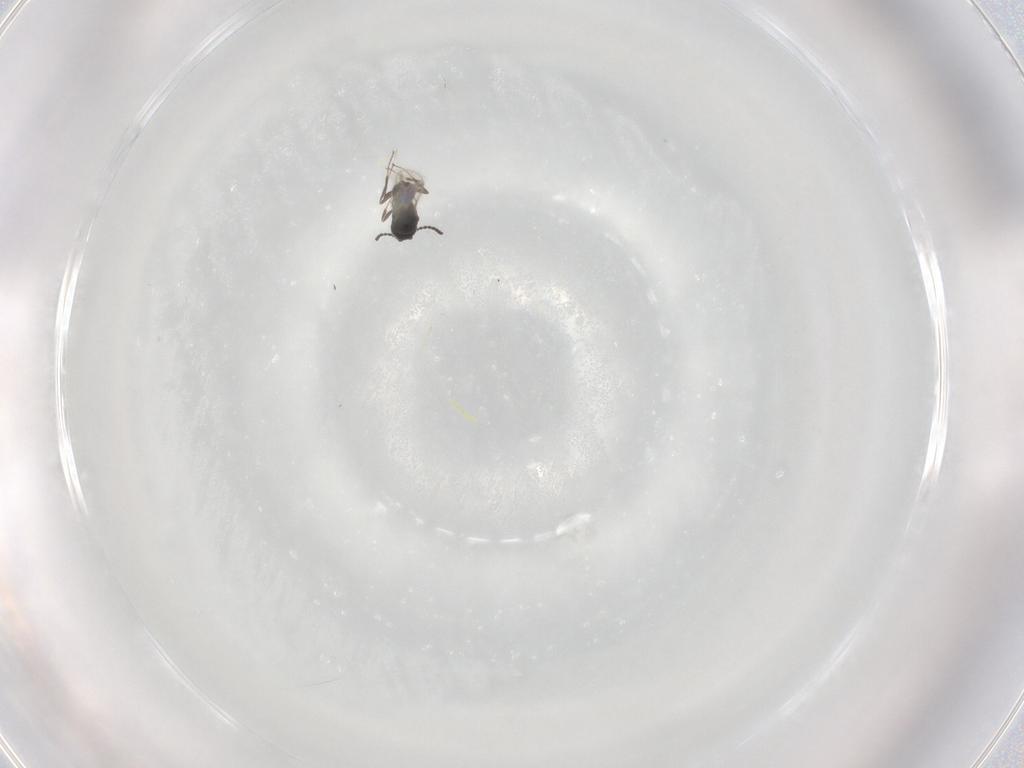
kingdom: Animalia
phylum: Arthropoda
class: Insecta
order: Hymenoptera
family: Scelionidae
